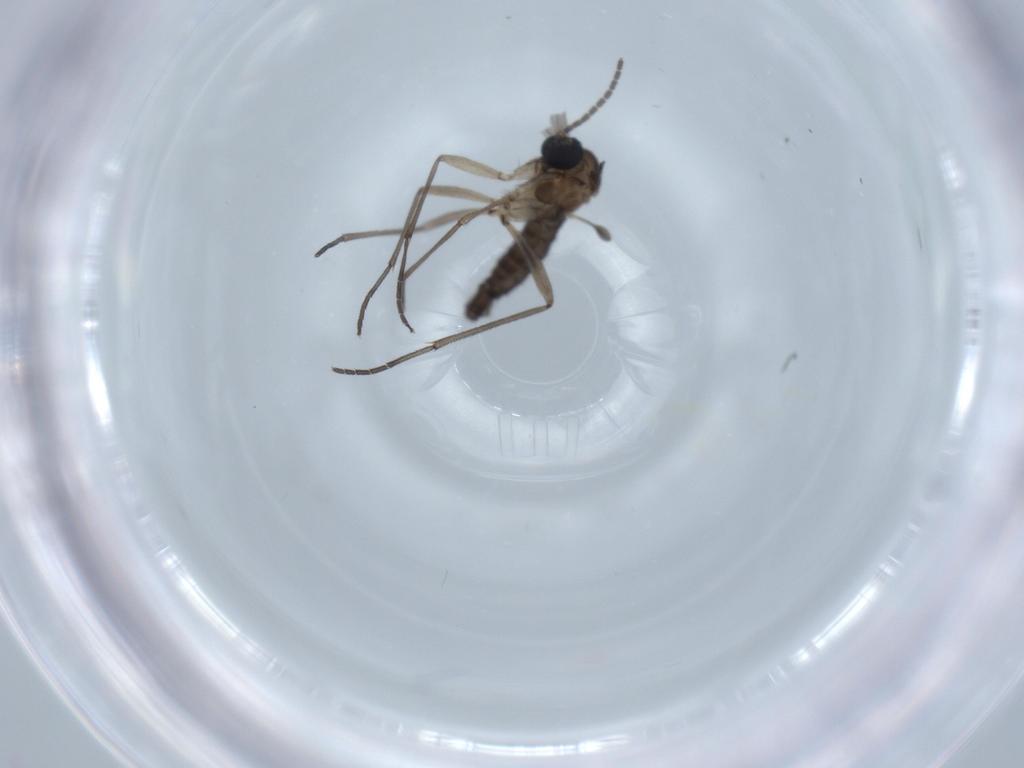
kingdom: Animalia
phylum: Arthropoda
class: Insecta
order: Diptera
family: Sciaridae
